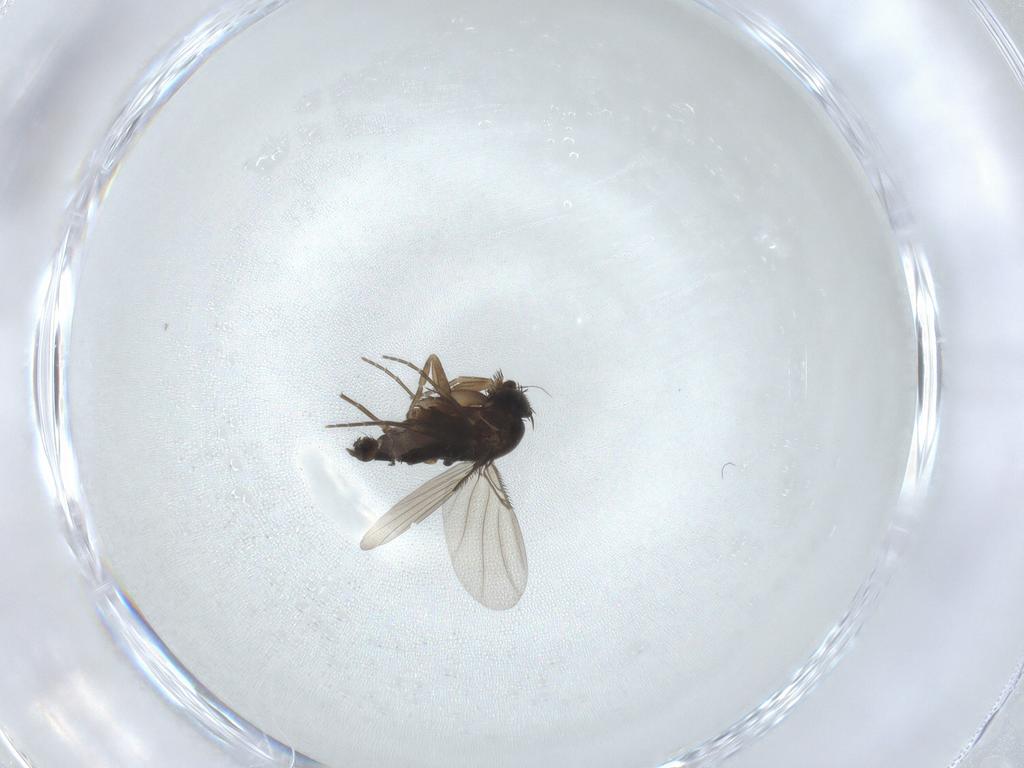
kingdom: Animalia
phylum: Arthropoda
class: Insecta
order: Diptera
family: Phoridae
